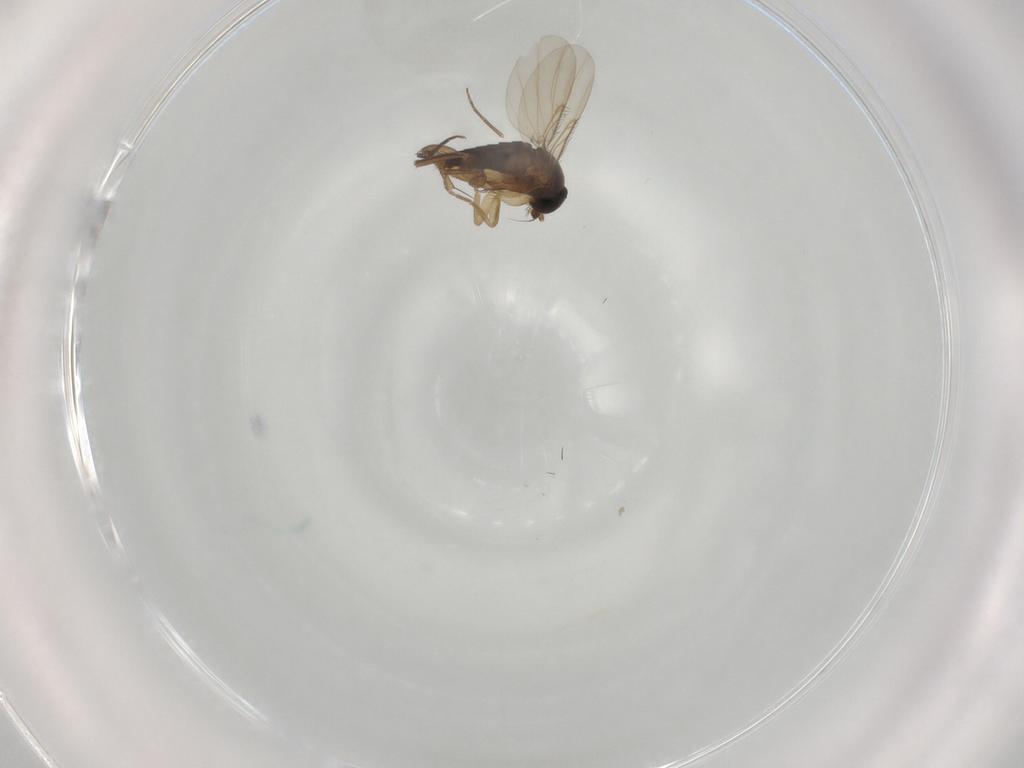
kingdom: Animalia
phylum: Arthropoda
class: Insecta
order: Diptera
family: Cecidomyiidae
